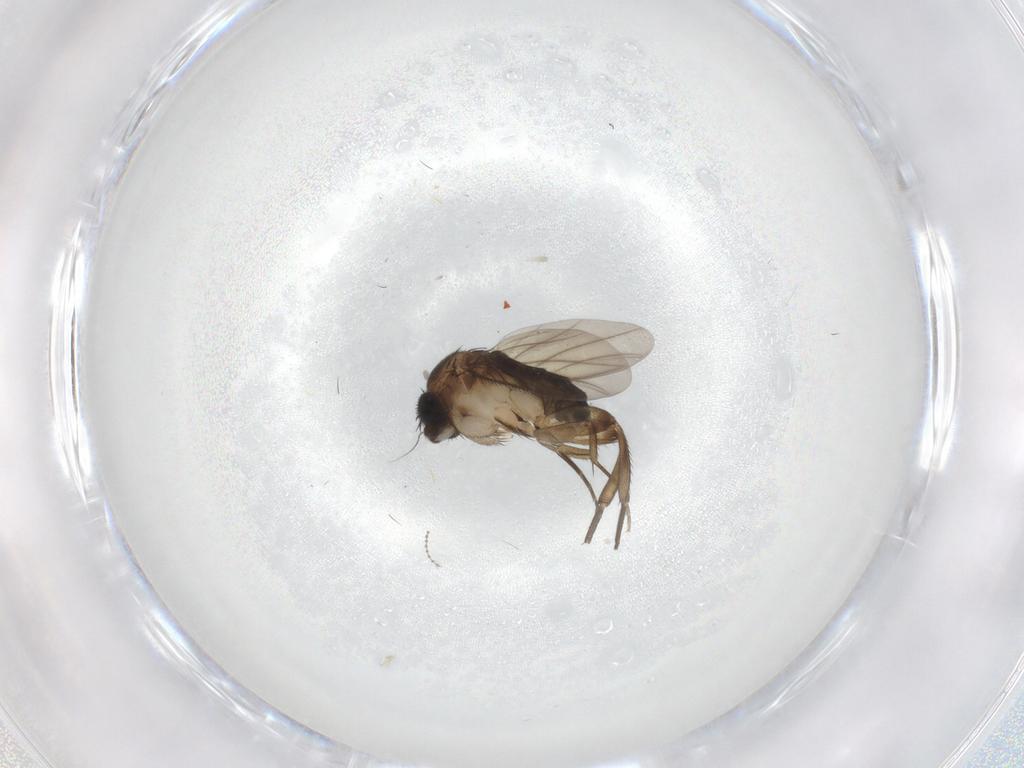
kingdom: Animalia
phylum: Arthropoda
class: Insecta
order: Diptera
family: Phoridae
